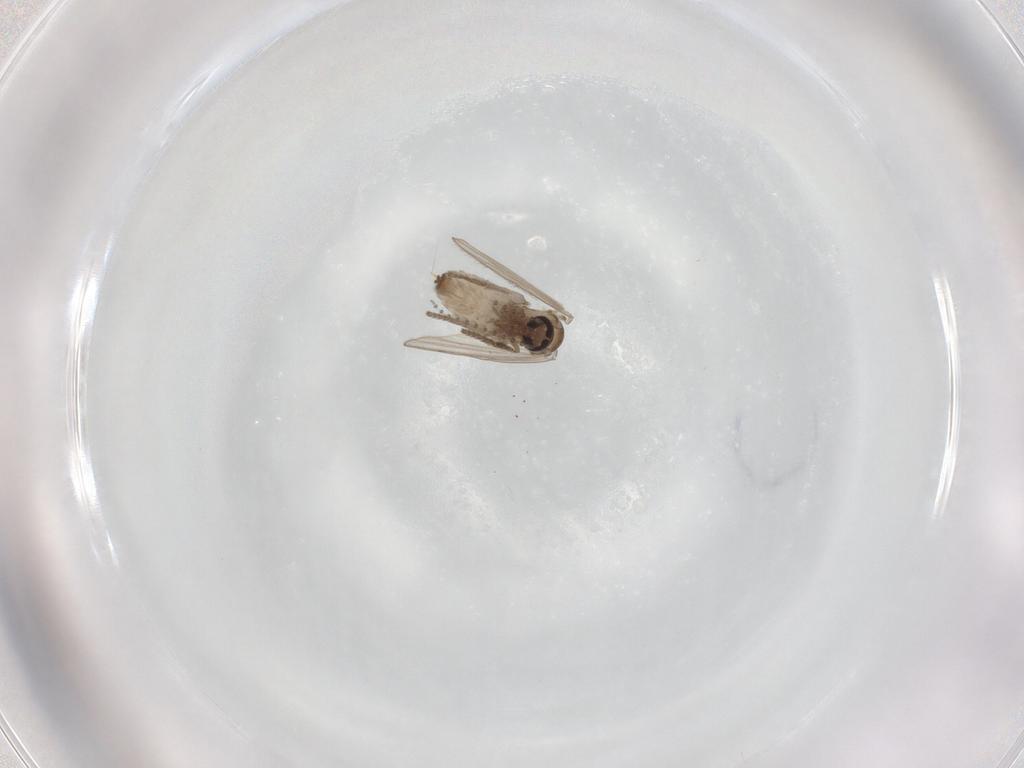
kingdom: Animalia
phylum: Arthropoda
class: Insecta
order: Diptera
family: Psychodidae
